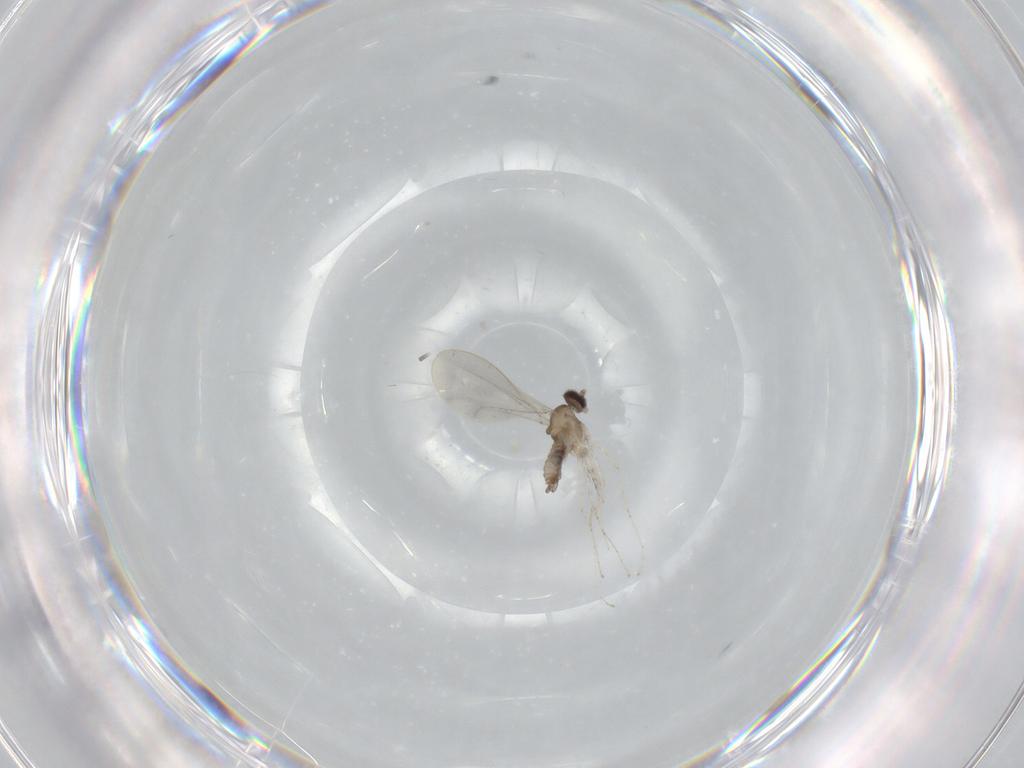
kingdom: Animalia
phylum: Arthropoda
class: Insecta
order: Diptera
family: Cecidomyiidae
